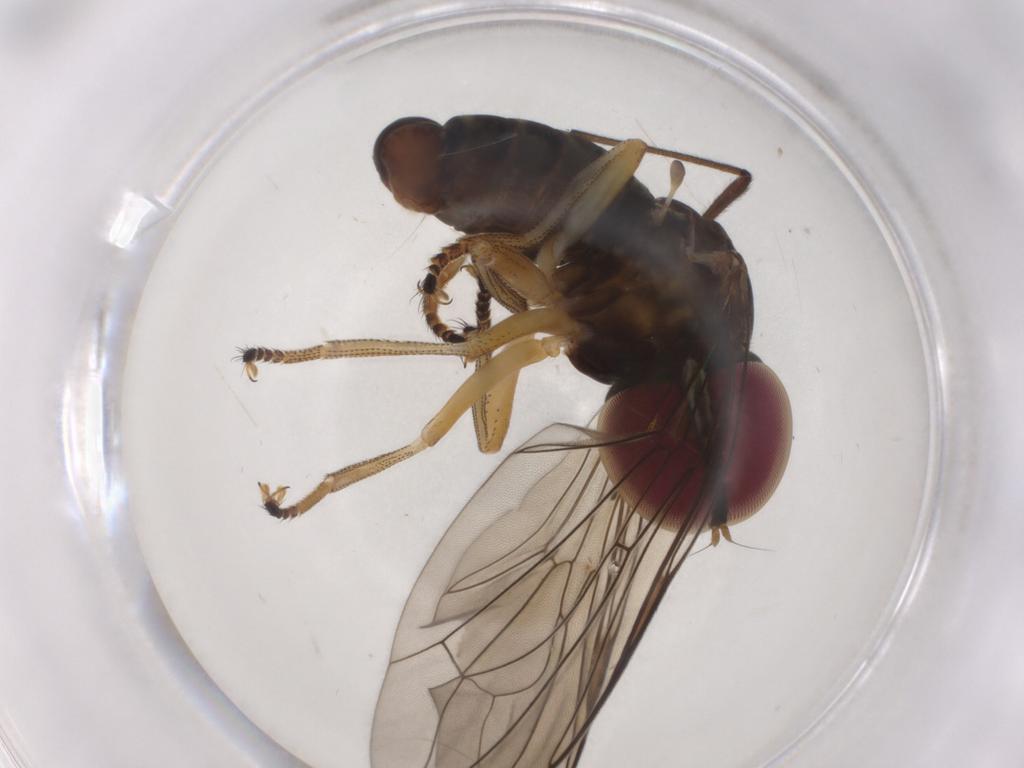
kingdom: Animalia
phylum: Arthropoda
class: Insecta
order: Diptera
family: Pipunculidae
